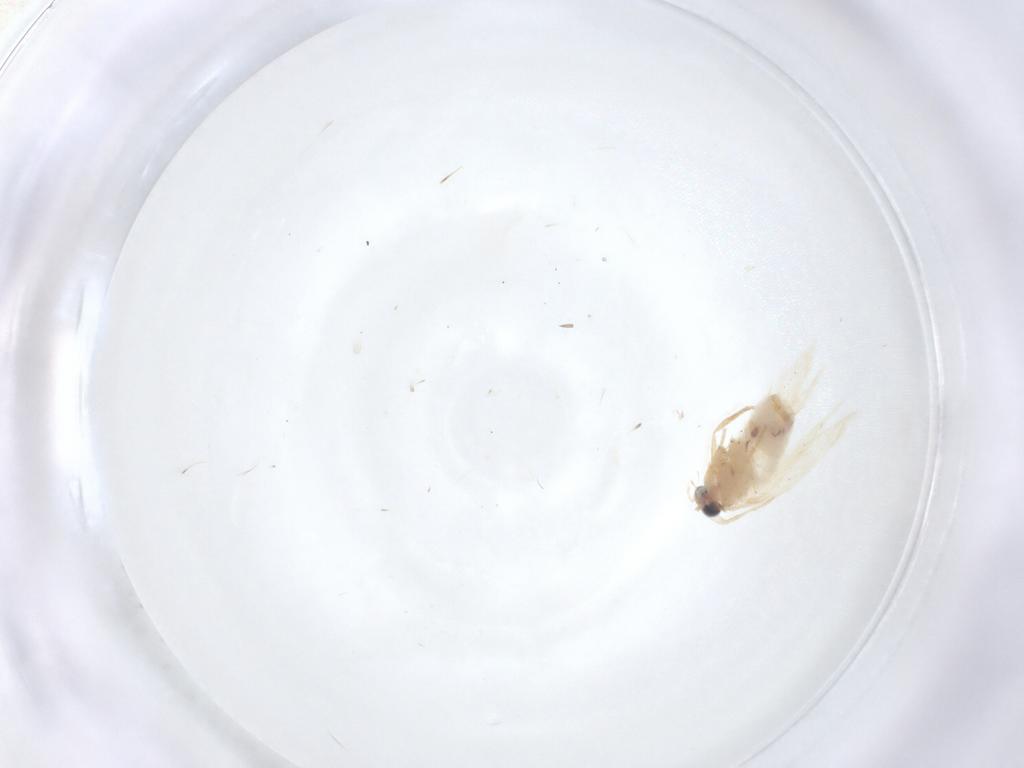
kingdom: Animalia
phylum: Arthropoda
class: Insecta
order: Lepidoptera
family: Nepticulidae
